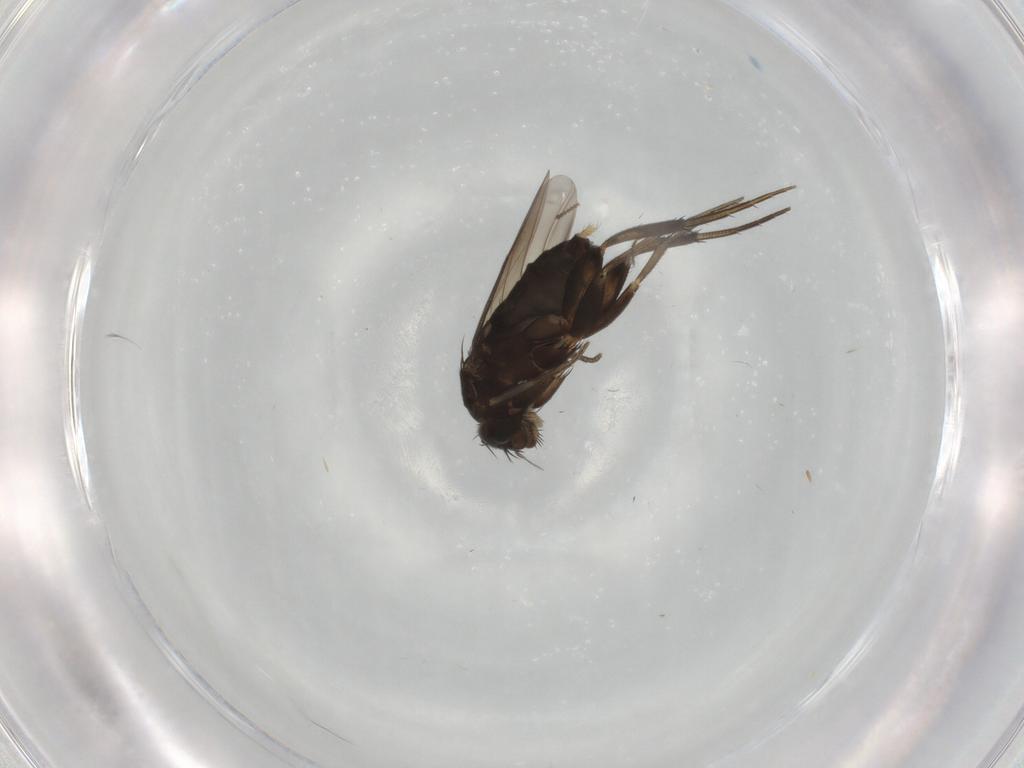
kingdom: Animalia
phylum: Arthropoda
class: Insecta
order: Diptera
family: Phoridae
